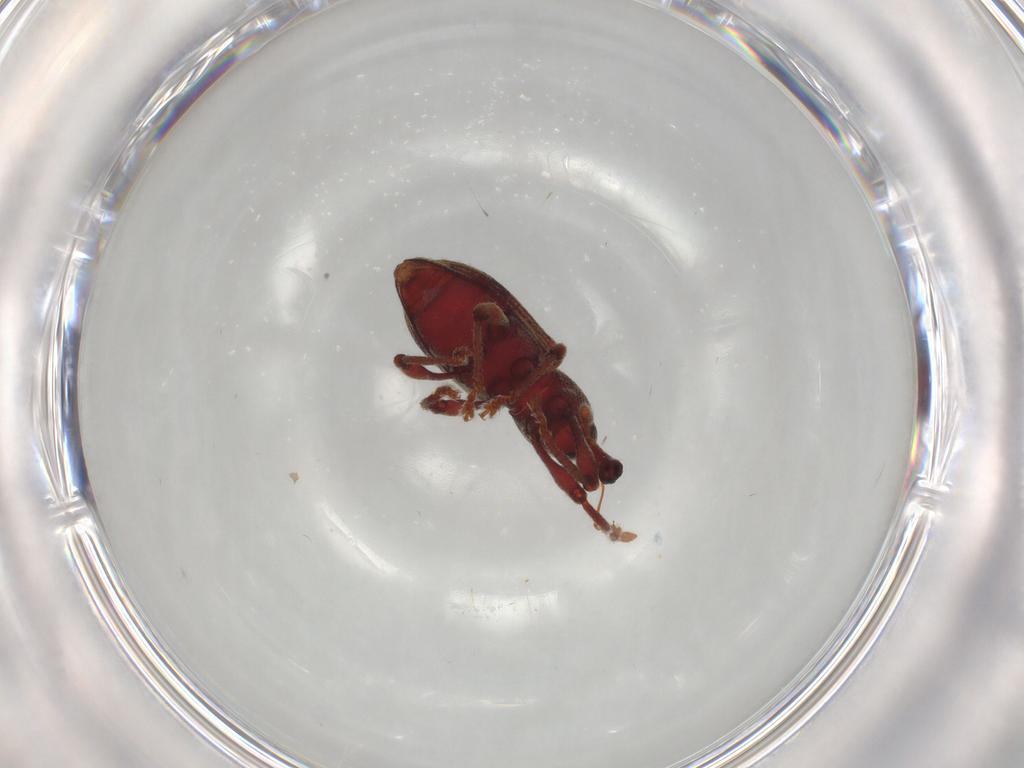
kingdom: Animalia
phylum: Arthropoda
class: Insecta
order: Coleoptera
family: Curculionidae
